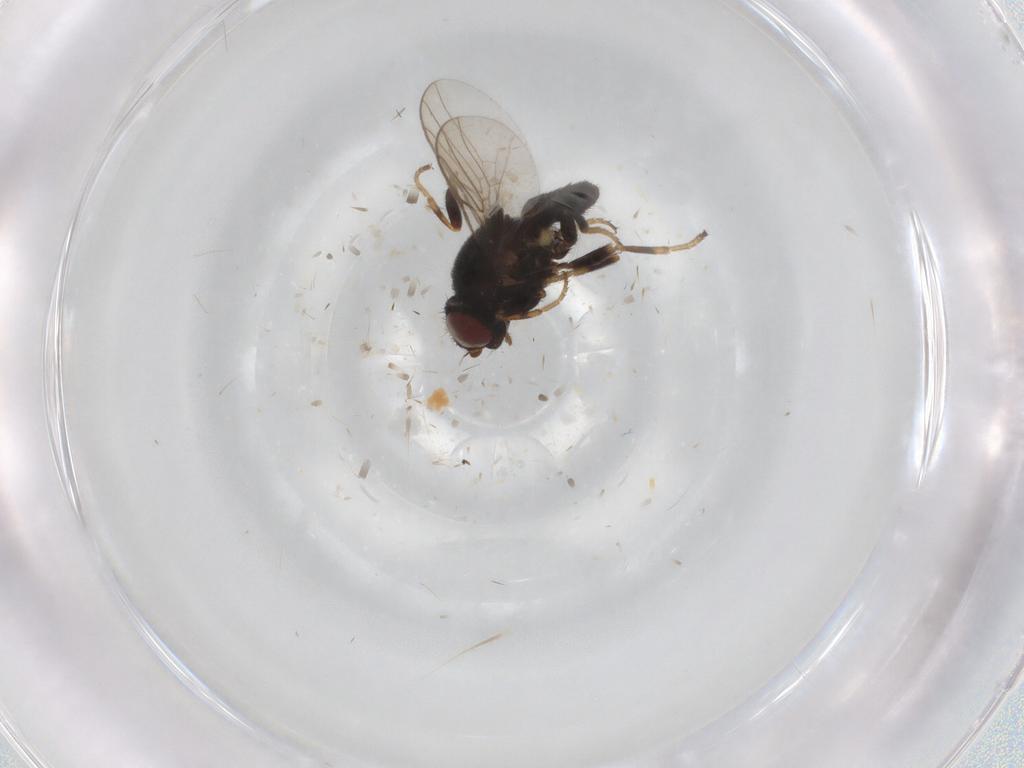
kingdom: Animalia
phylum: Arthropoda
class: Insecta
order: Diptera
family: Chloropidae
